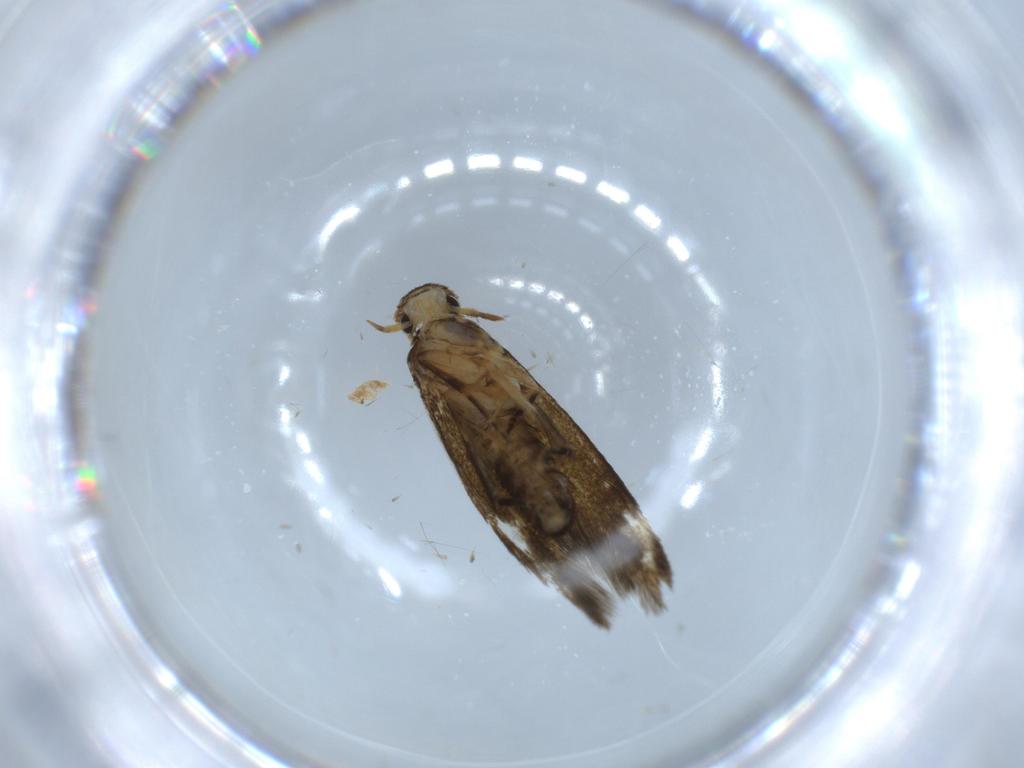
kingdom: Animalia
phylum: Arthropoda
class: Insecta
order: Lepidoptera
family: Tineidae
